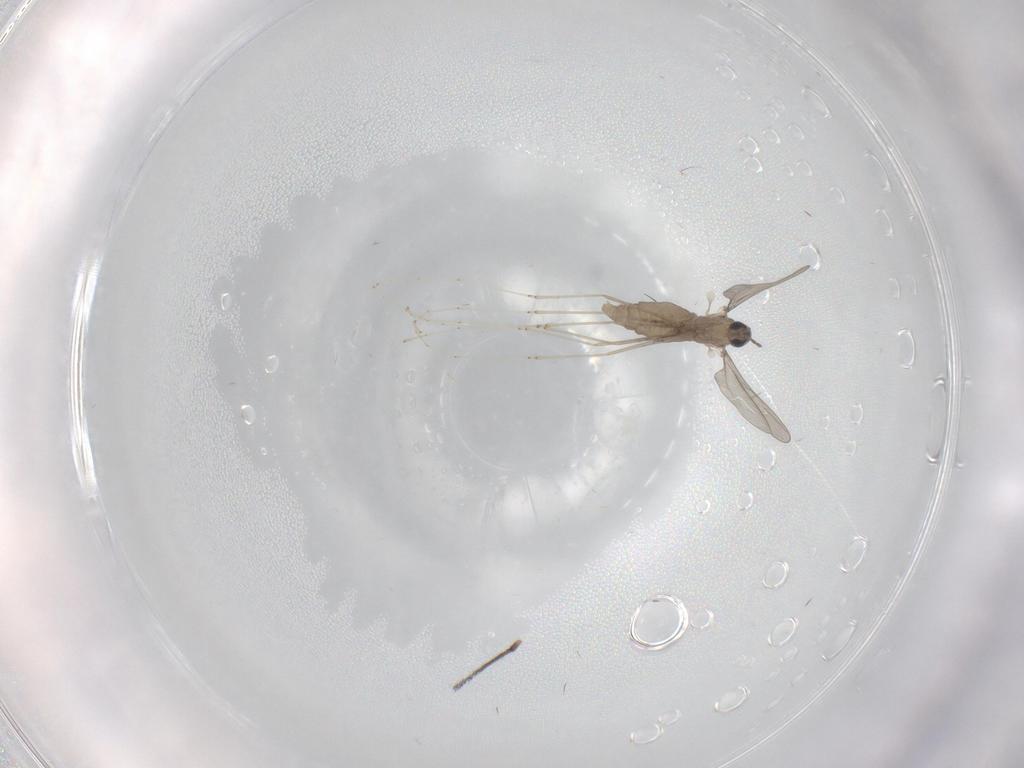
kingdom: Animalia
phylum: Arthropoda
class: Insecta
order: Diptera
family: Cecidomyiidae
